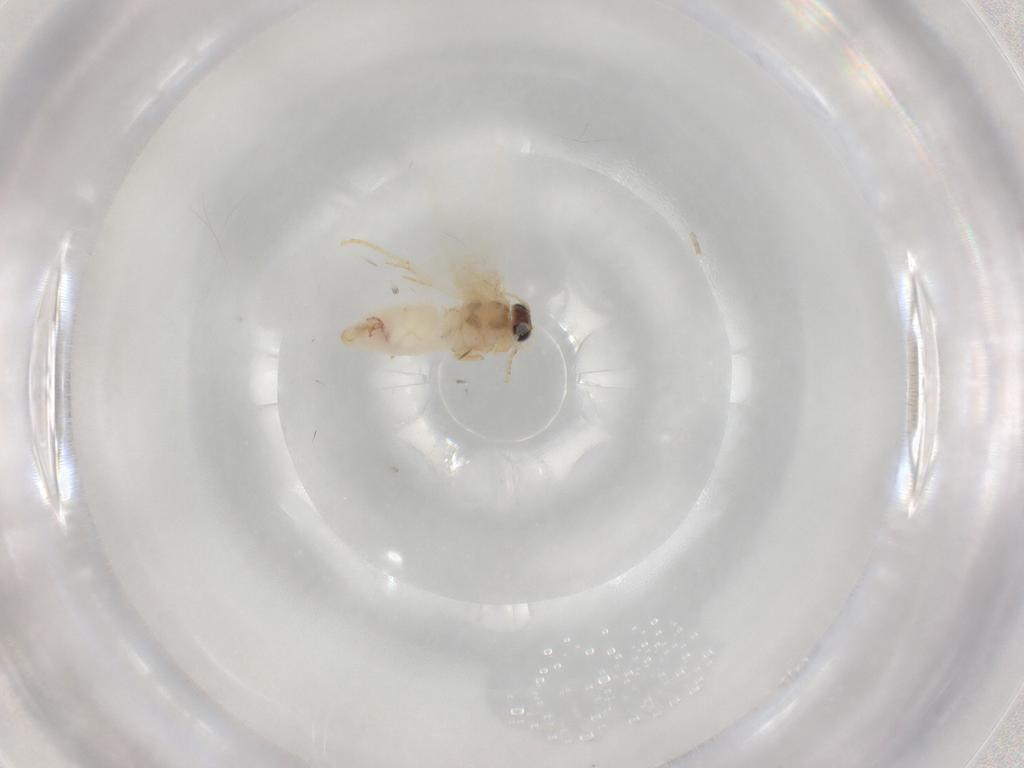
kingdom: Animalia
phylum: Arthropoda
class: Insecta
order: Lepidoptera
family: Nepticulidae
